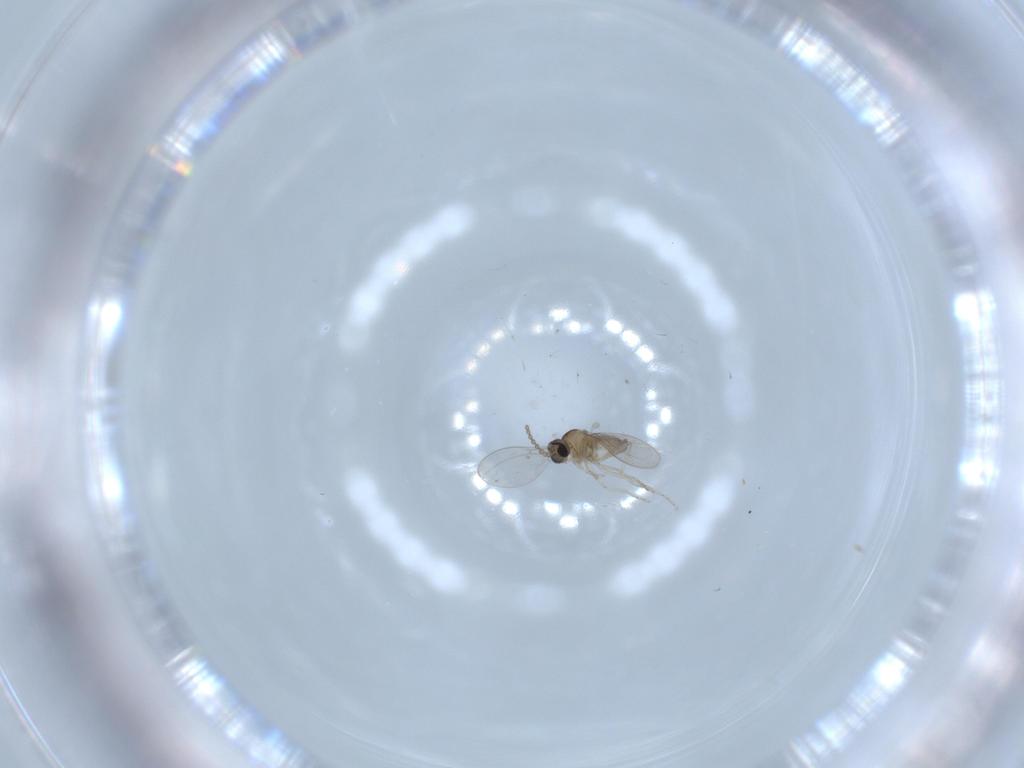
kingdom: Animalia
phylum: Arthropoda
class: Insecta
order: Diptera
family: Cecidomyiidae
